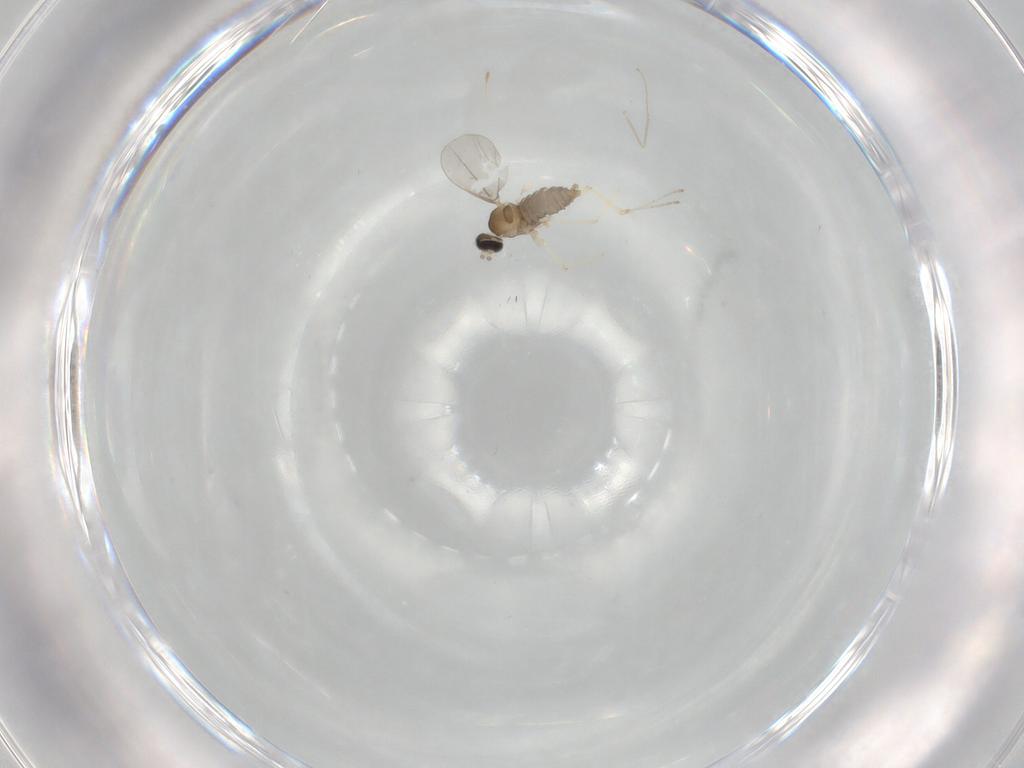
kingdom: Animalia
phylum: Arthropoda
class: Insecta
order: Diptera
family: Cecidomyiidae
